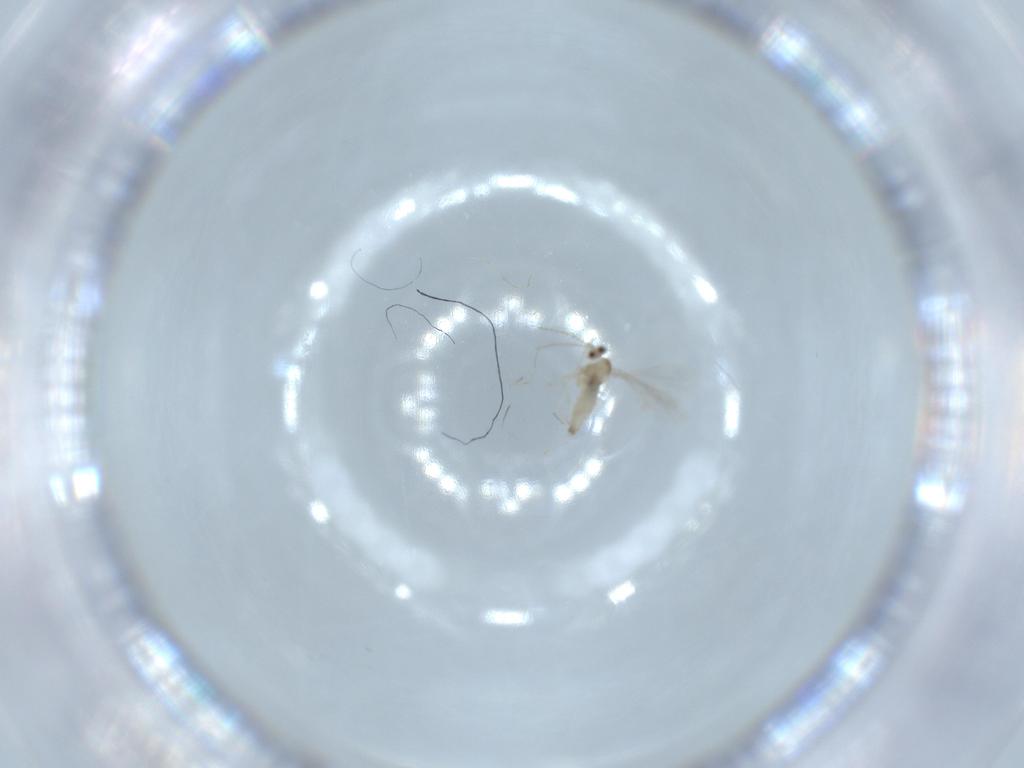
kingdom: Animalia
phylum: Arthropoda
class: Insecta
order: Diptera
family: Cecidomyiidae
